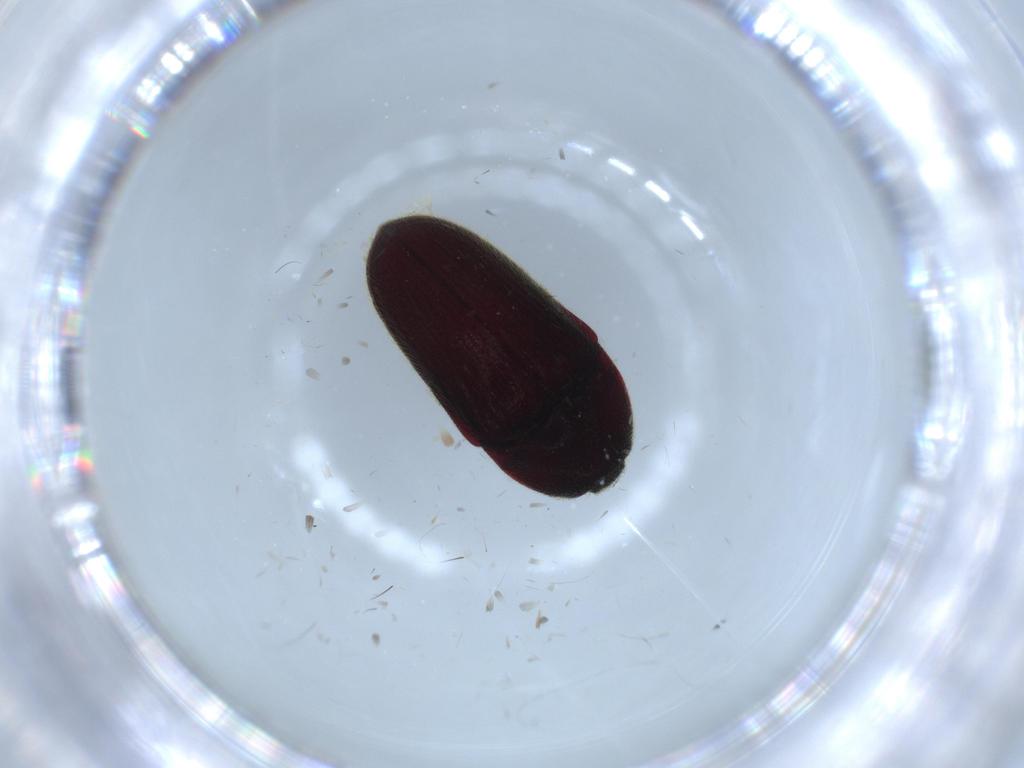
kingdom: Animalia
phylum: Arthropoda
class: Insecta
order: Coleoptera
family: Throscidae
